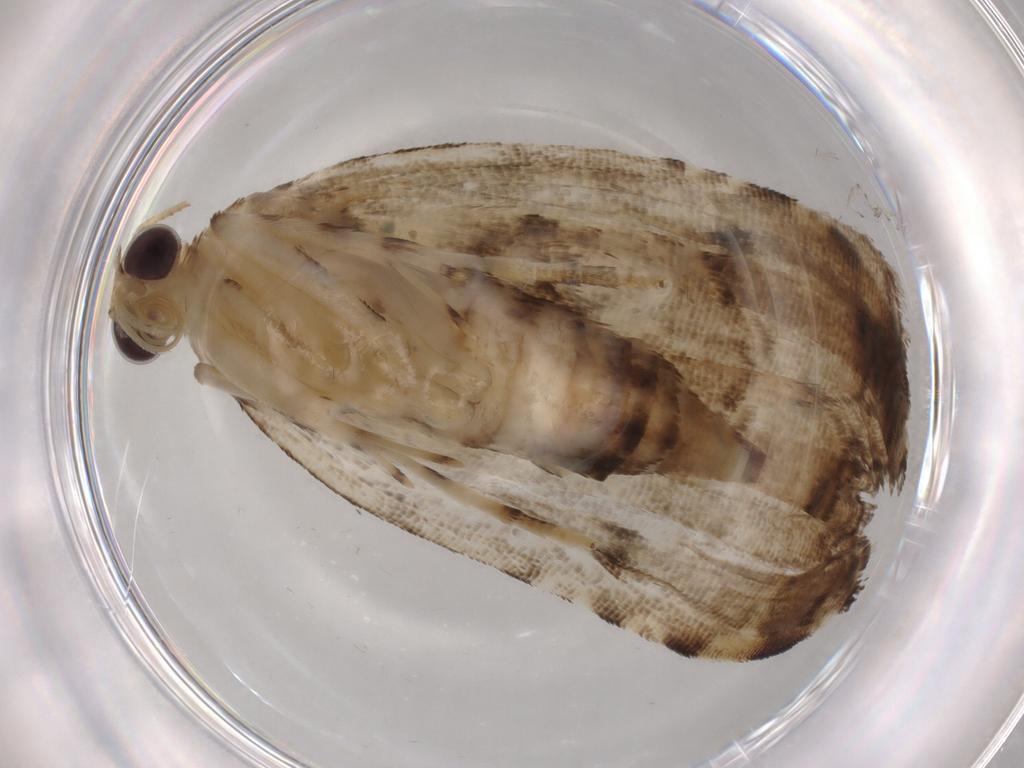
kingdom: Animalia
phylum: Arthropoda
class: Insecta
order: Lepidoptera
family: Crambidae
